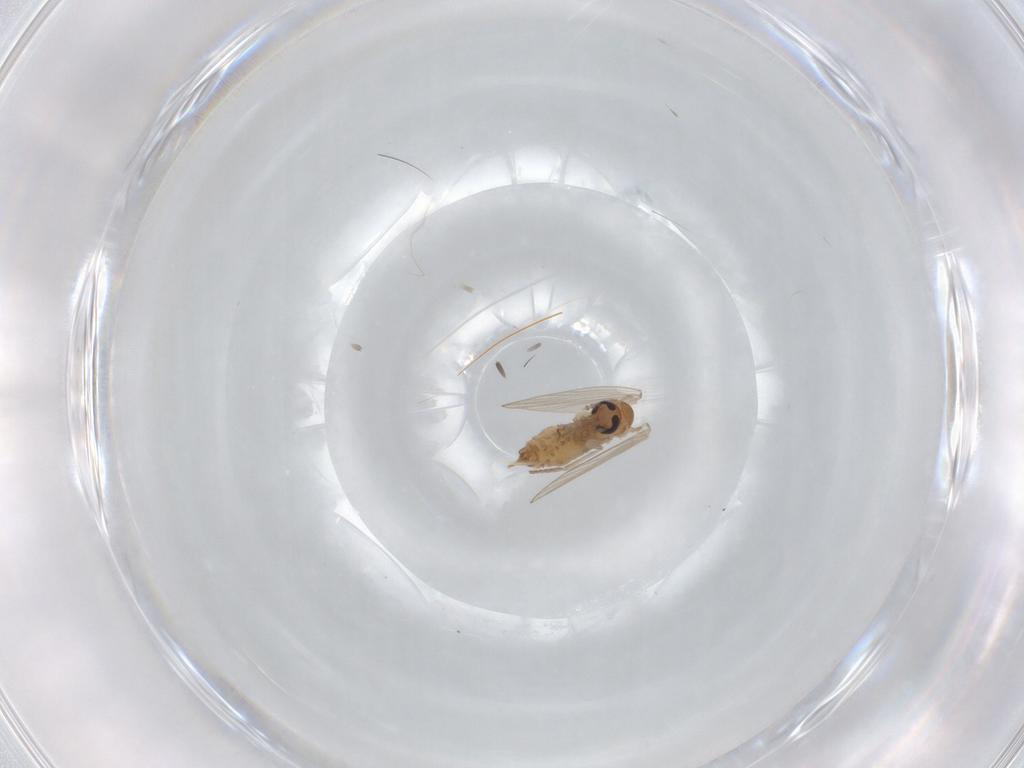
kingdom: Animalia
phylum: Arthropoda
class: Insecta
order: Diptera
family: Psychodidae
